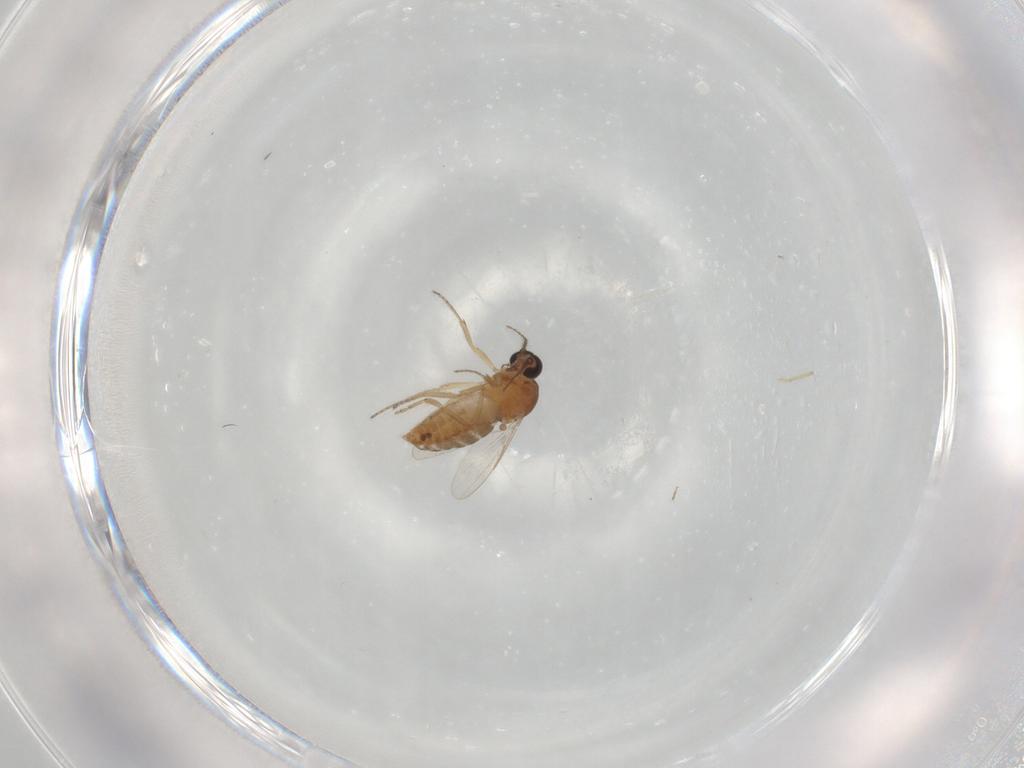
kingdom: Animalia
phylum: Arthropoda
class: Insecta
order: Diptera
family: Ceratopogonidae
